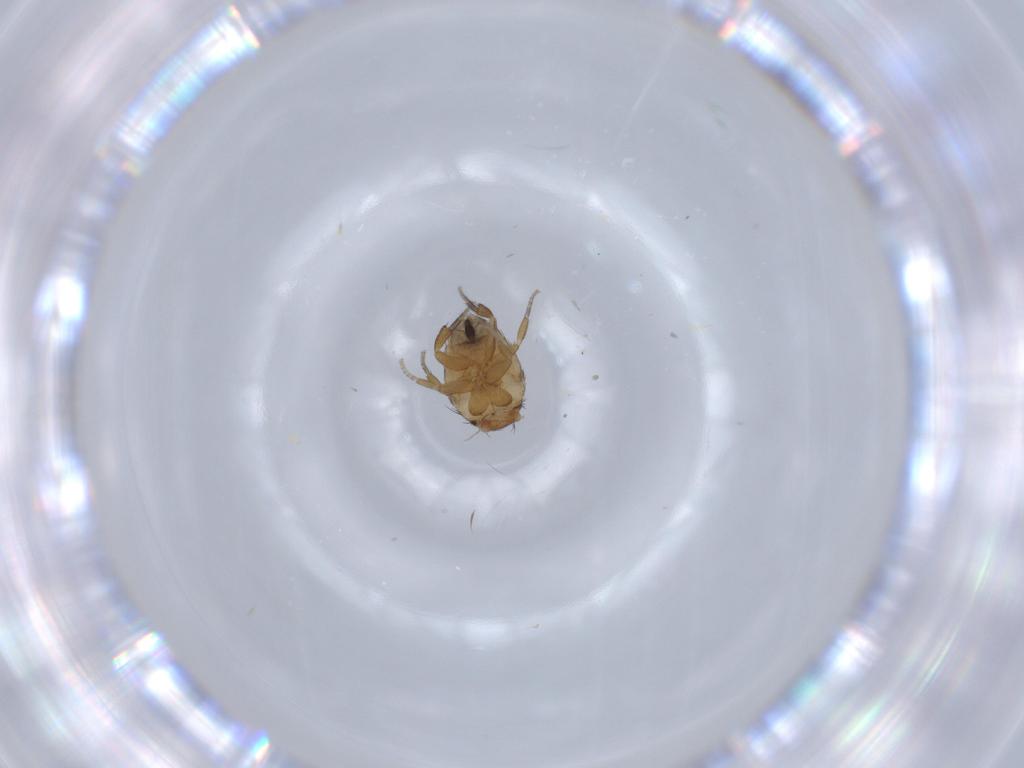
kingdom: Animalia
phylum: Arthropoda
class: Insecta
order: Diptera
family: Phoridae
